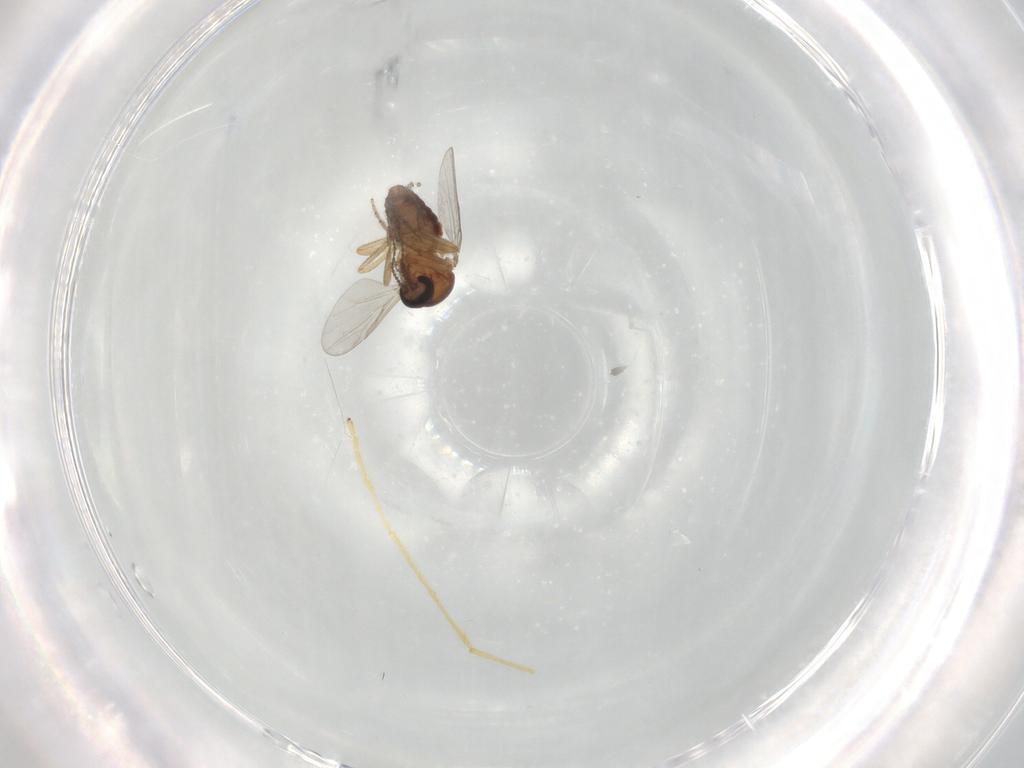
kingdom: Animalia
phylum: Arthropoda
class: Insecta
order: Diptera
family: Ceratopogonidae
